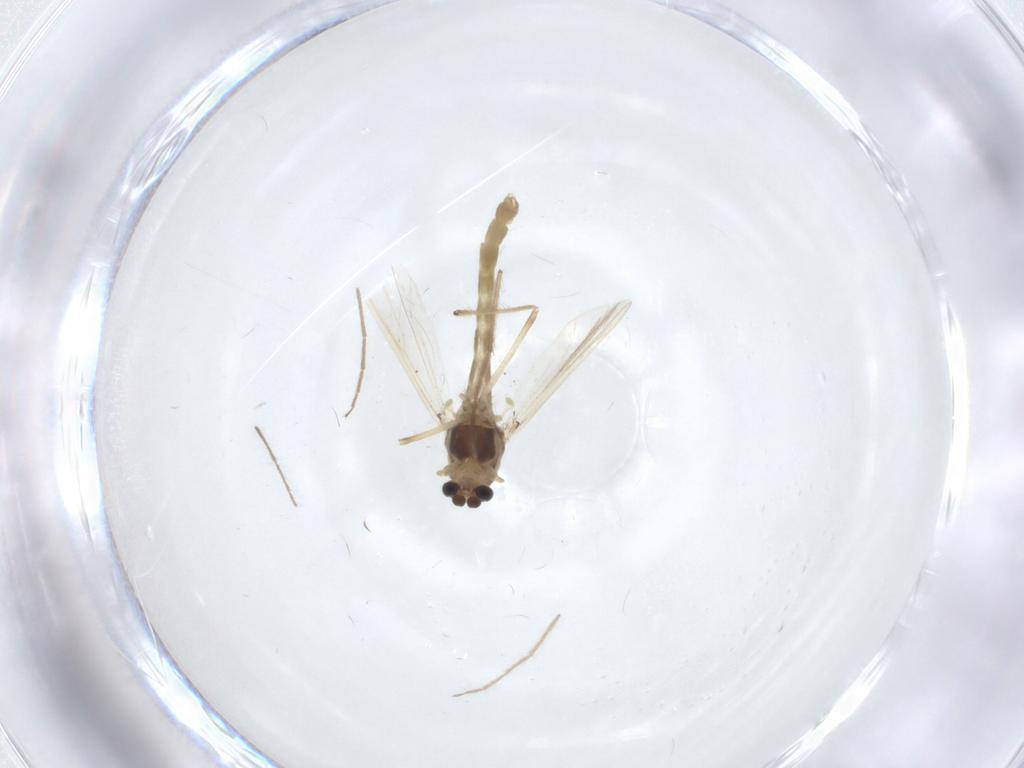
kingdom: Animalia
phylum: Arthropoda
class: Insecta
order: Diptera
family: Chironomidae
